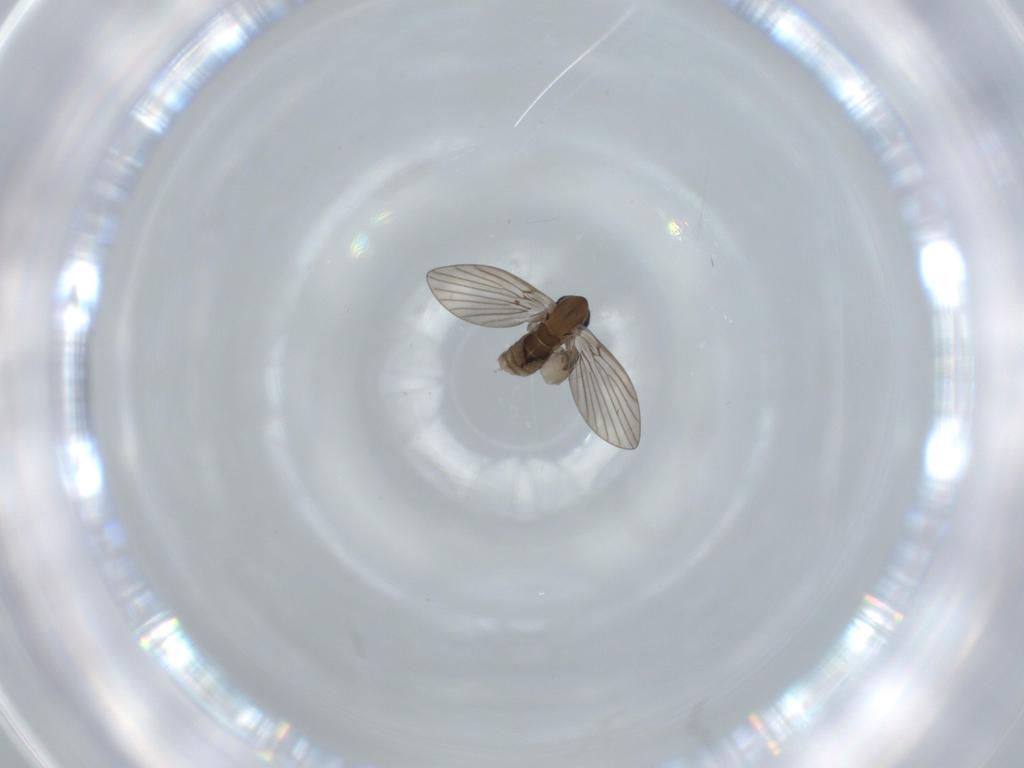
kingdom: Animalia
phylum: Arthropoda
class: Insecta
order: Diptera
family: Psychodidae
